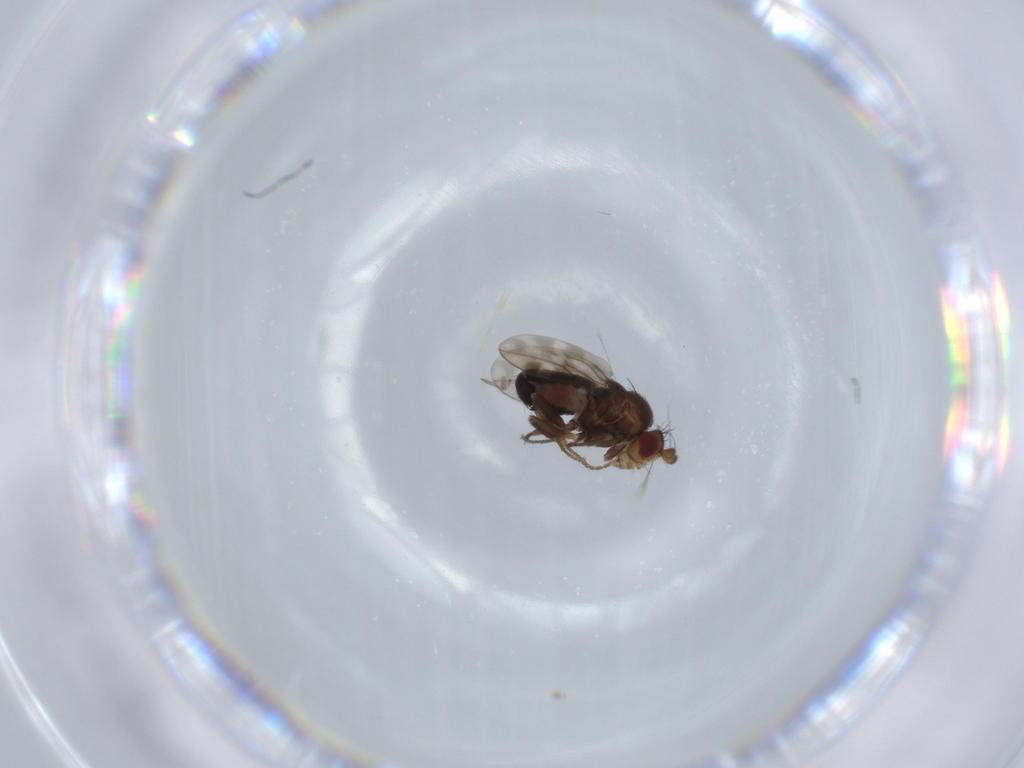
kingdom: Animalia
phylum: Arthropoda
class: Insecta
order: Diptera
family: Sphaeroceridae
